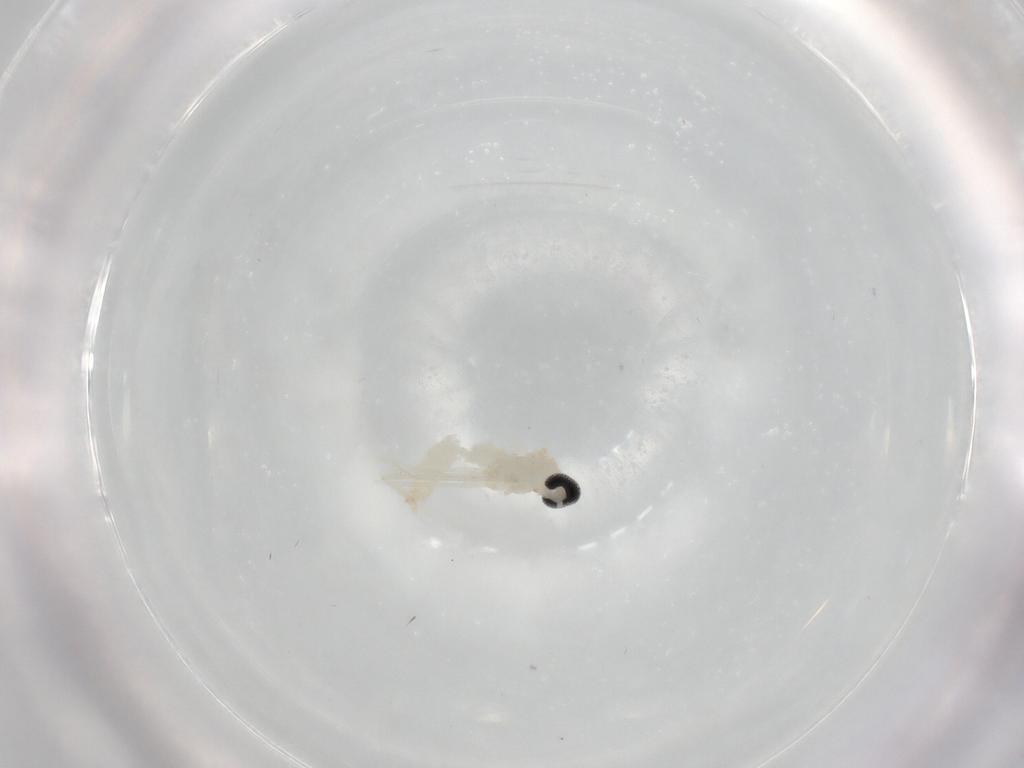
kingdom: Animalia
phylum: Arthropoda
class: Insecta
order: Diptera
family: Cecidomyiidae
